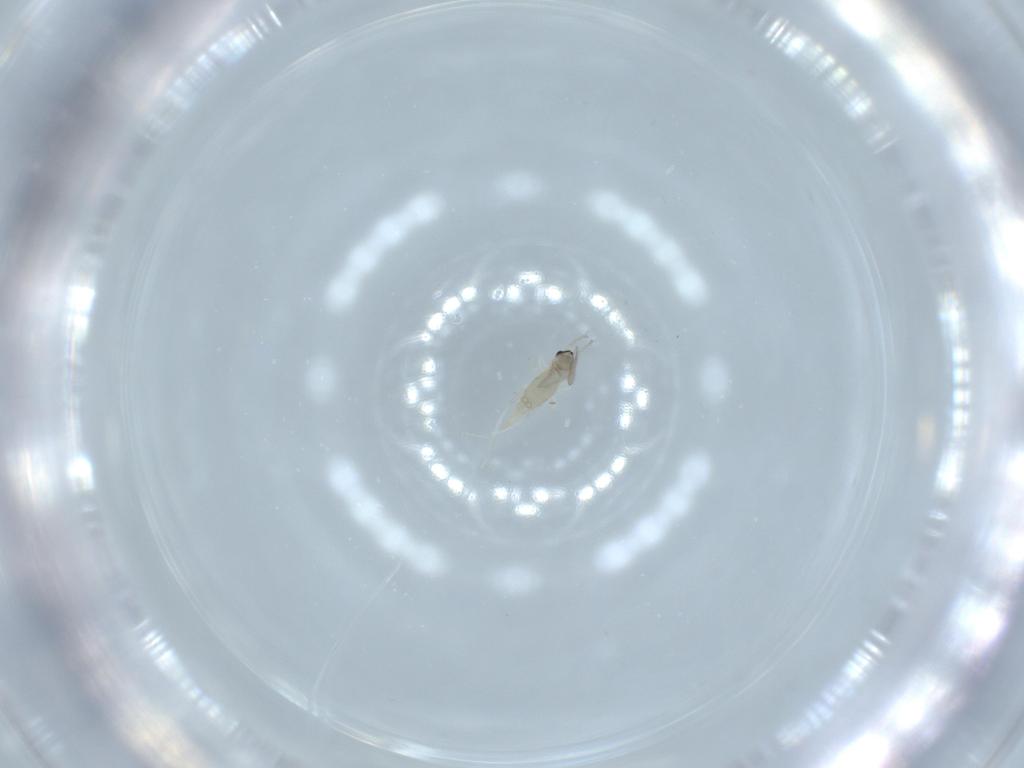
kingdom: Animalia
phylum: Arthropoda
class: Insecta
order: Diptera
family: Cecidomyiidae
